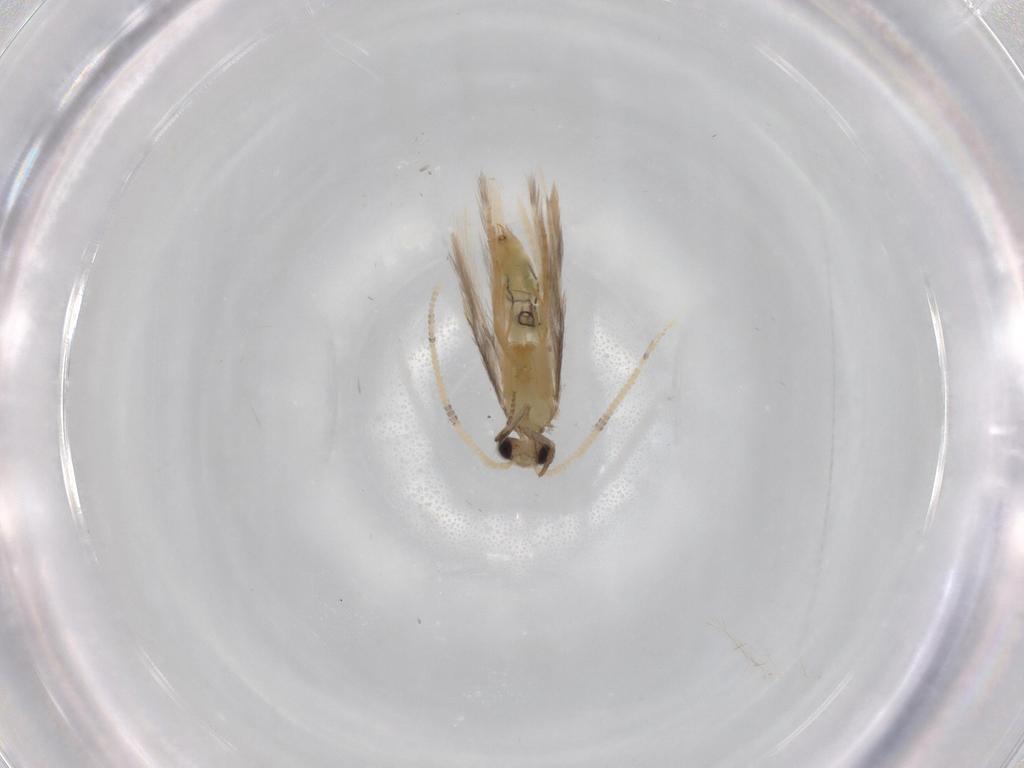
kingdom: Animalia
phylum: Arthropoda
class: Insecta
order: Trichoptera
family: Hydroptilidae
